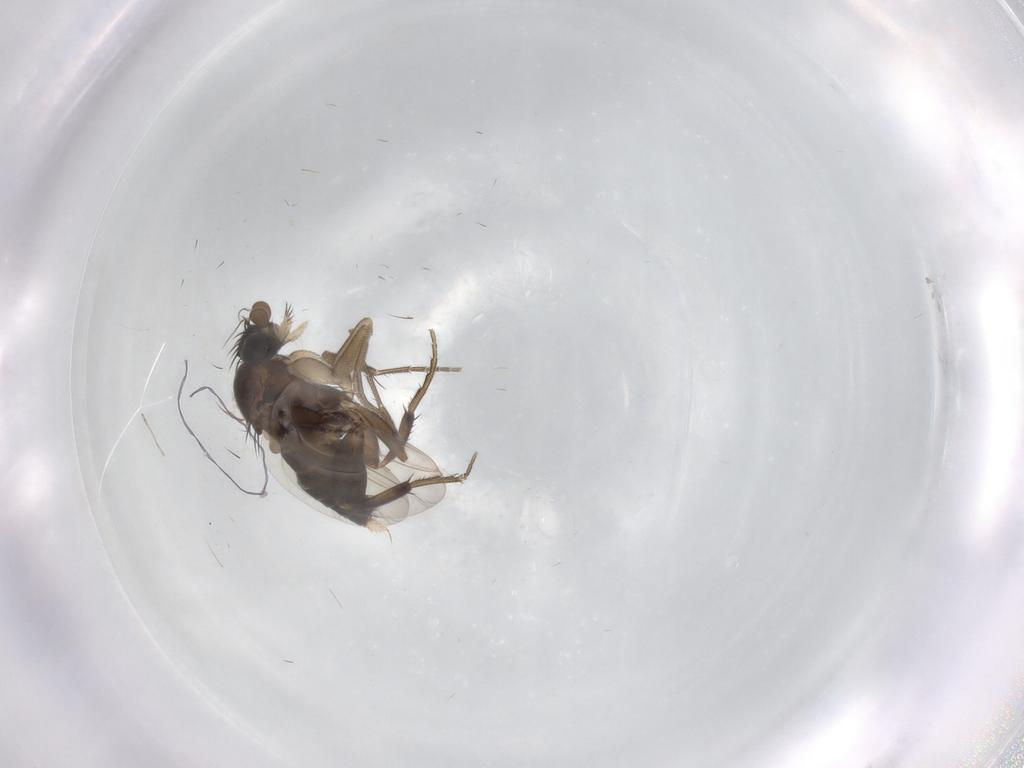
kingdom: Animalia
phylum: Arthropoda
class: Insecta
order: Diptera
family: Phoridae
